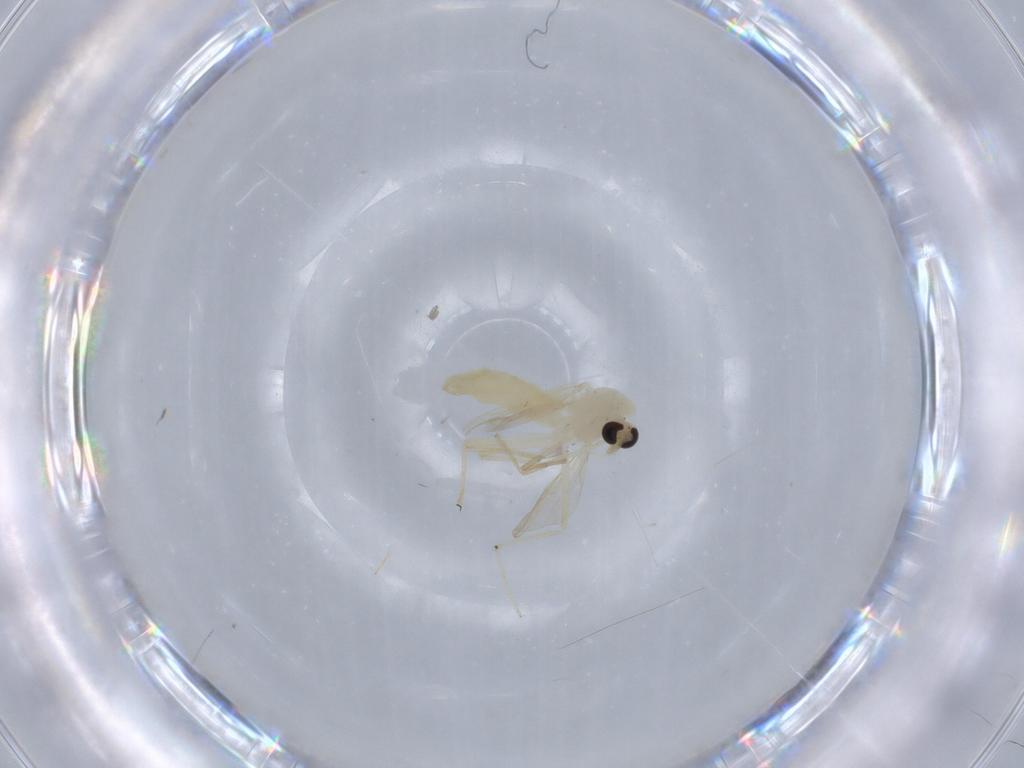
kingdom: Animalia
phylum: Arthropoda
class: Insecta
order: Diptera
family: Chironomidae
